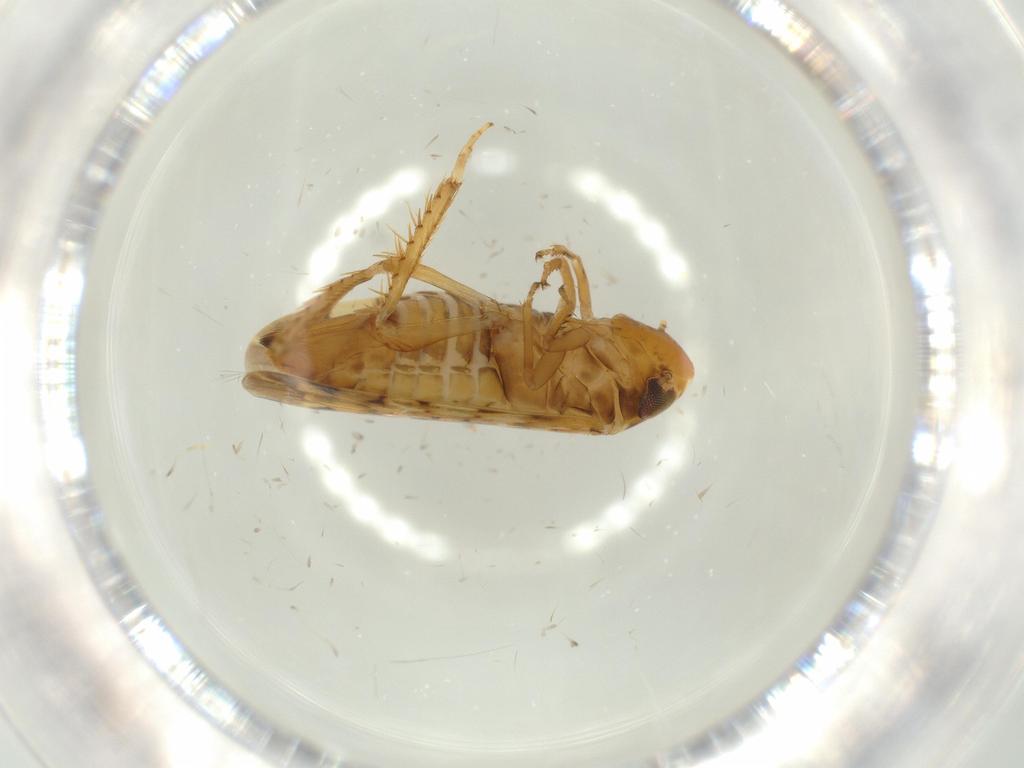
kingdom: Animalia
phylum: Arthropoda
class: Insecta
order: Hemiptera
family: Cicadellidae
